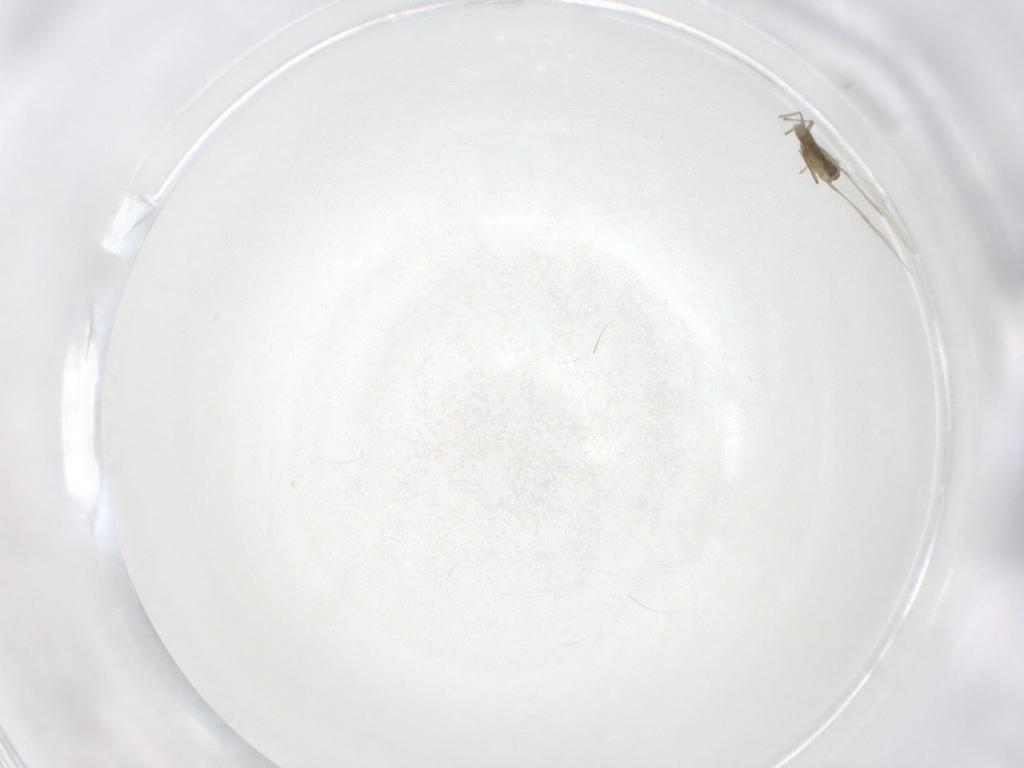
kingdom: Animalia
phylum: Arthropoda
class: Insecta
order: Diptera
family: Chironomidae
